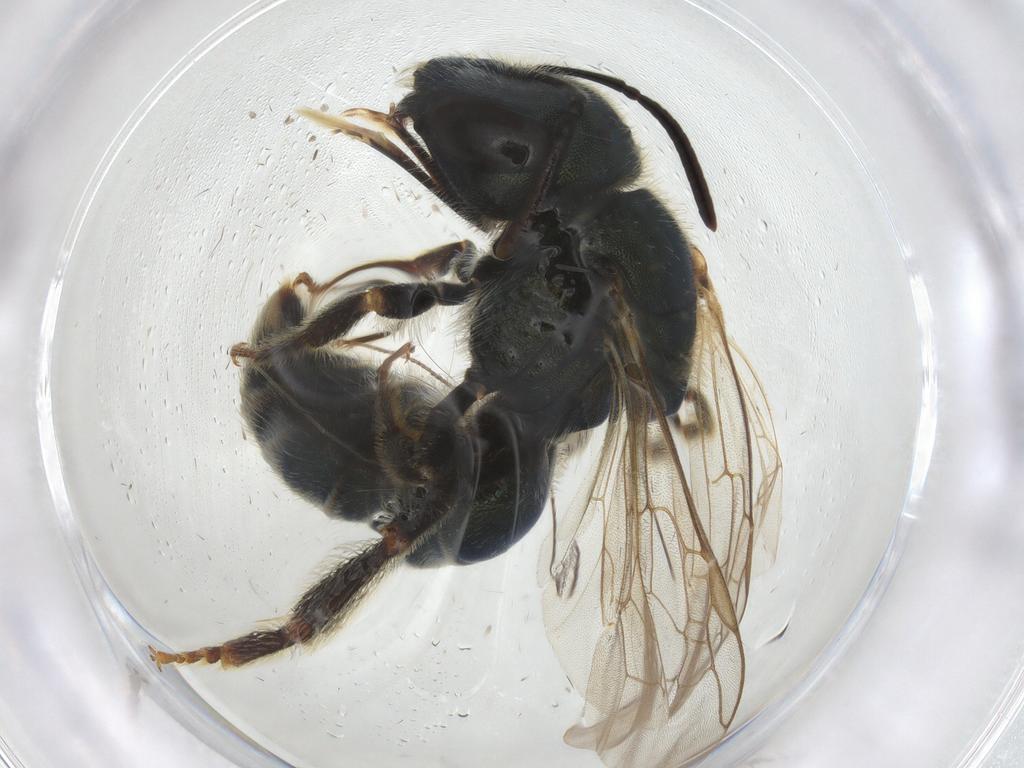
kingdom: Animalia
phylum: Arthropoda
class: Insecta
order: Hymenoptera
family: Halictidae
